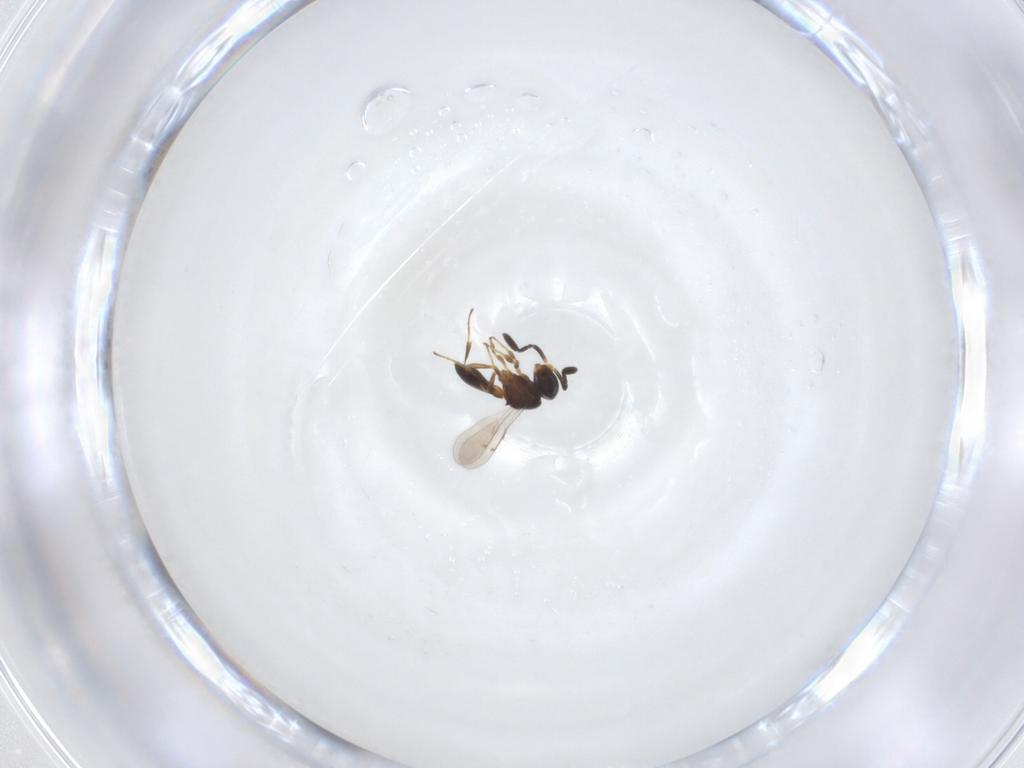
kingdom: Animalia
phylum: Arthropoda
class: Insecta
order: Hymenoptera
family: Scelionidae
